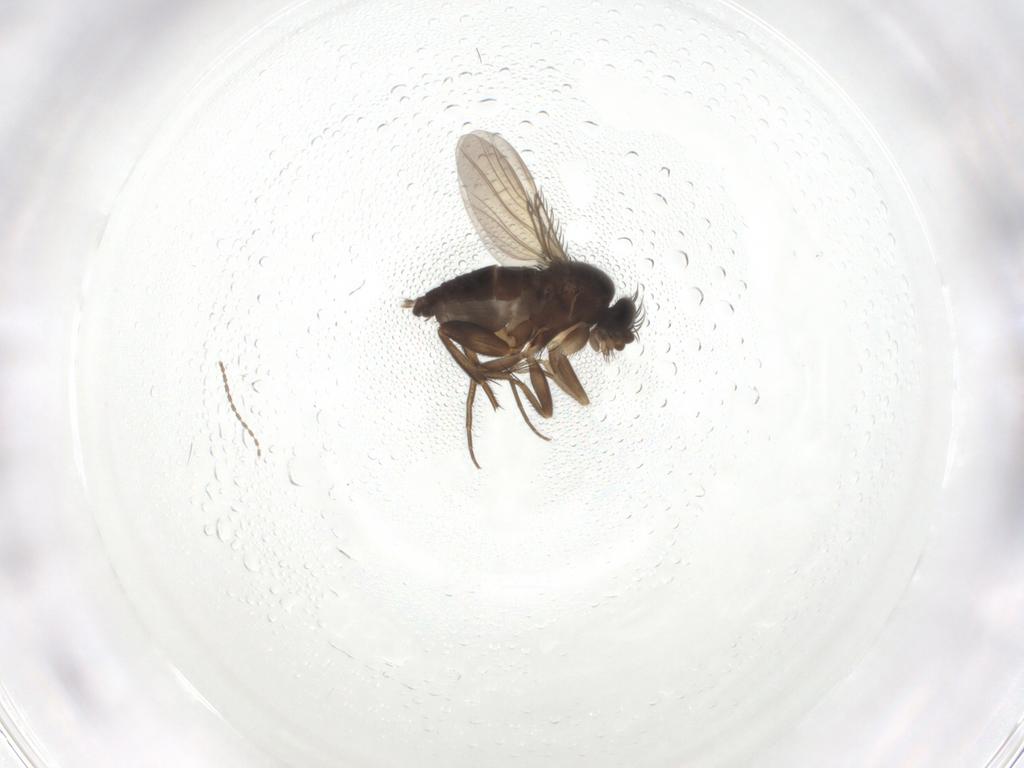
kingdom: Animalia
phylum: Arthropoda
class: Insecta
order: Diptera
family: Phoridae
